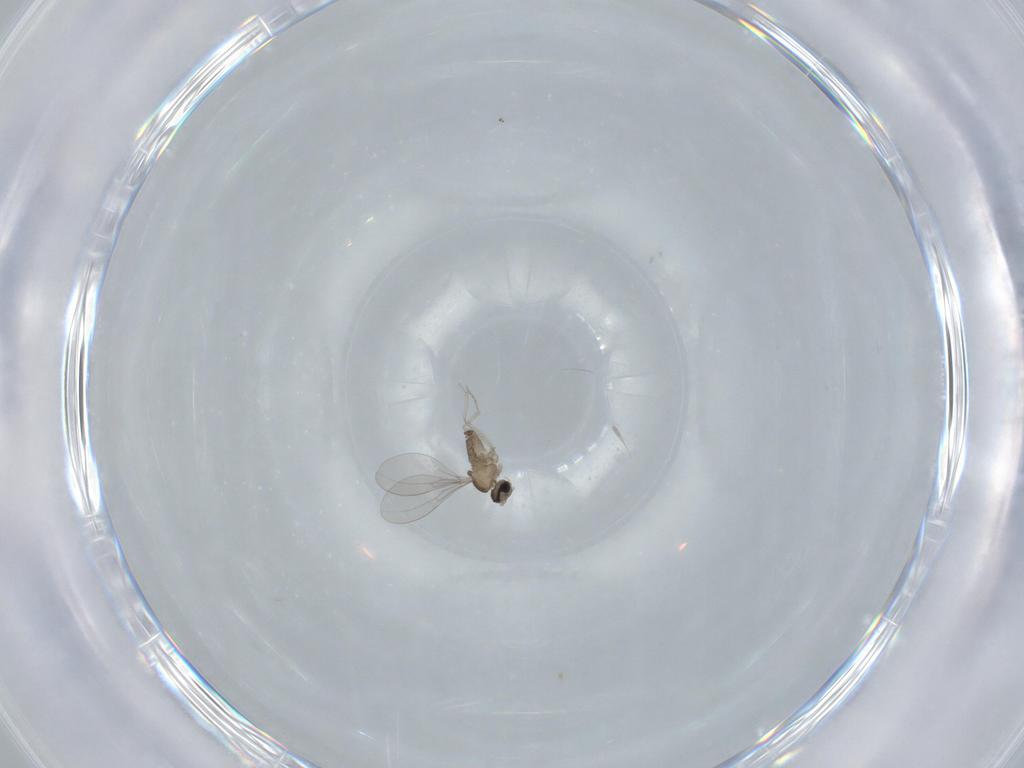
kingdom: Animalia
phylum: Arthropoda
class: Insecta
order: Diptera
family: Cecidomyiidae
